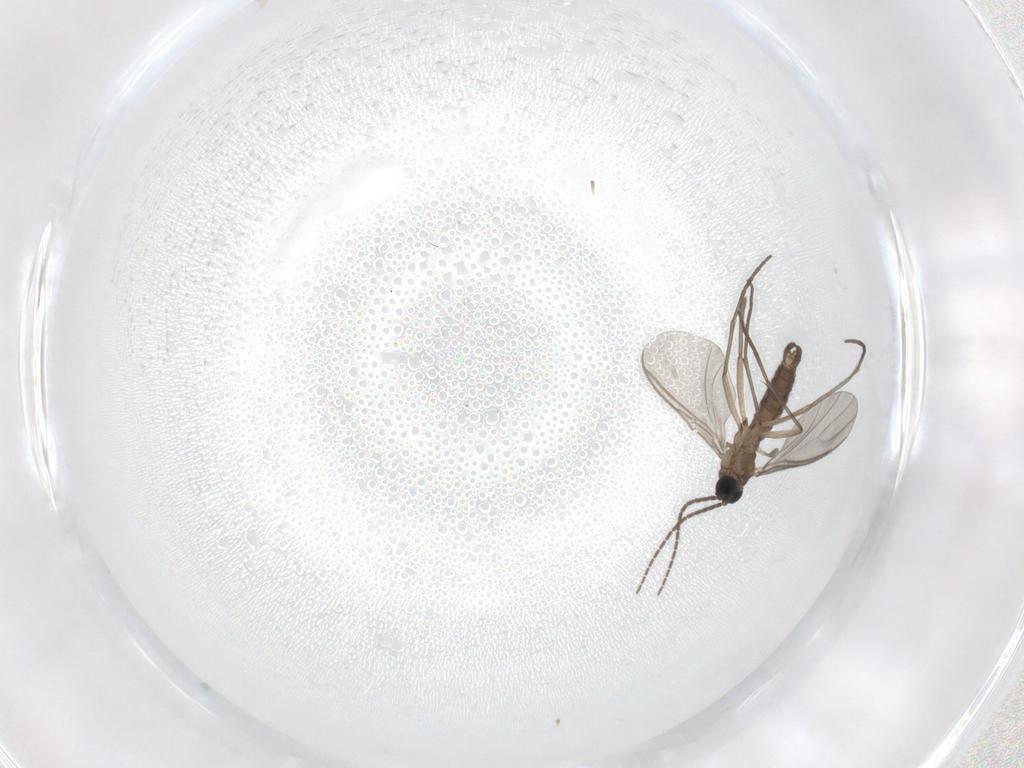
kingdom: Animalia
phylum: Arthropoda
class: Insecta
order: Diptera
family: Sciaridae
